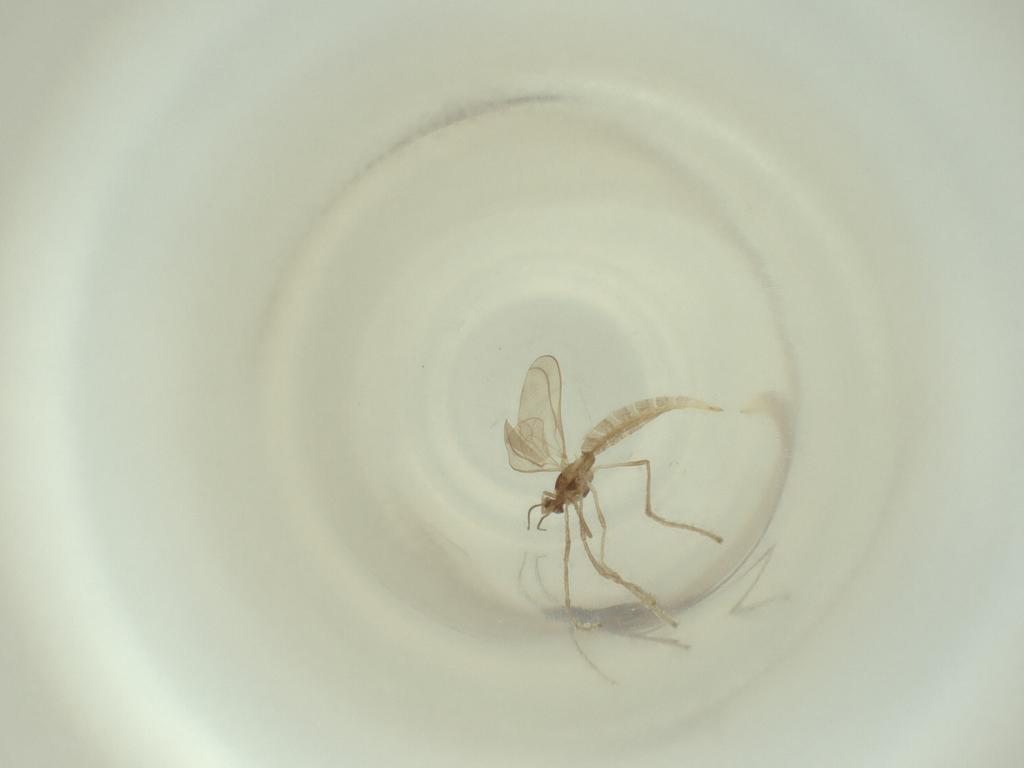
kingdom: Animalia
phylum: Arthropoda
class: Insecta
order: Diptera
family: Cecidomyiidae
